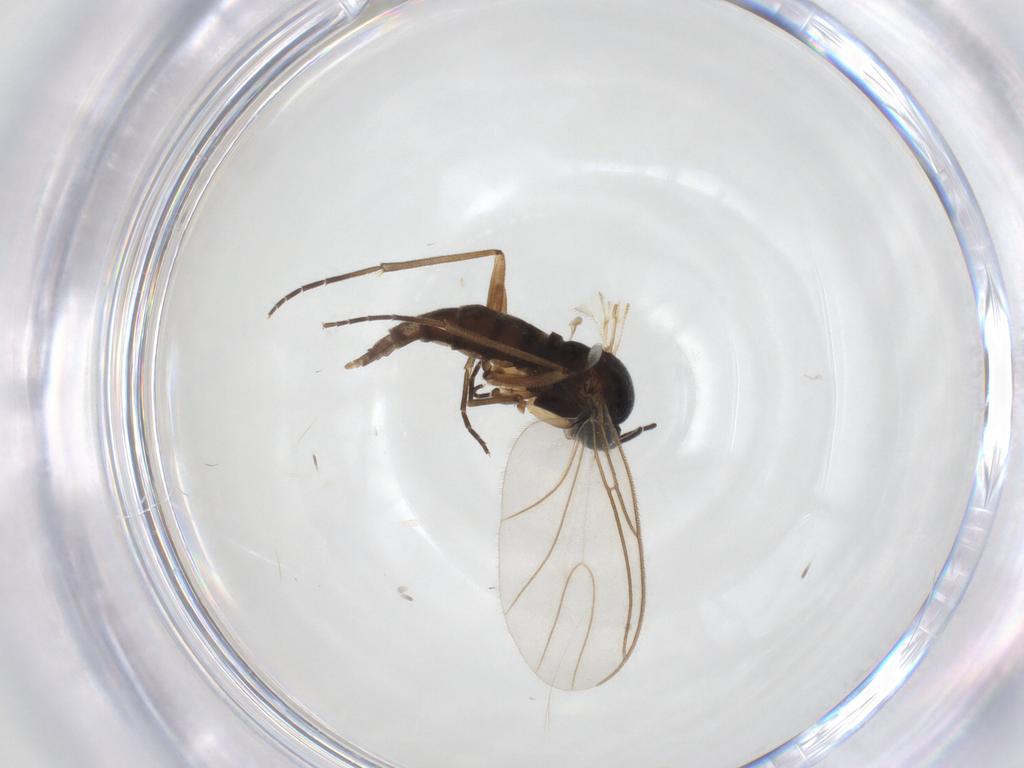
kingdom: Animalia
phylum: Arthropoda
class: Insecta
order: Diptera
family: Sciaridae
